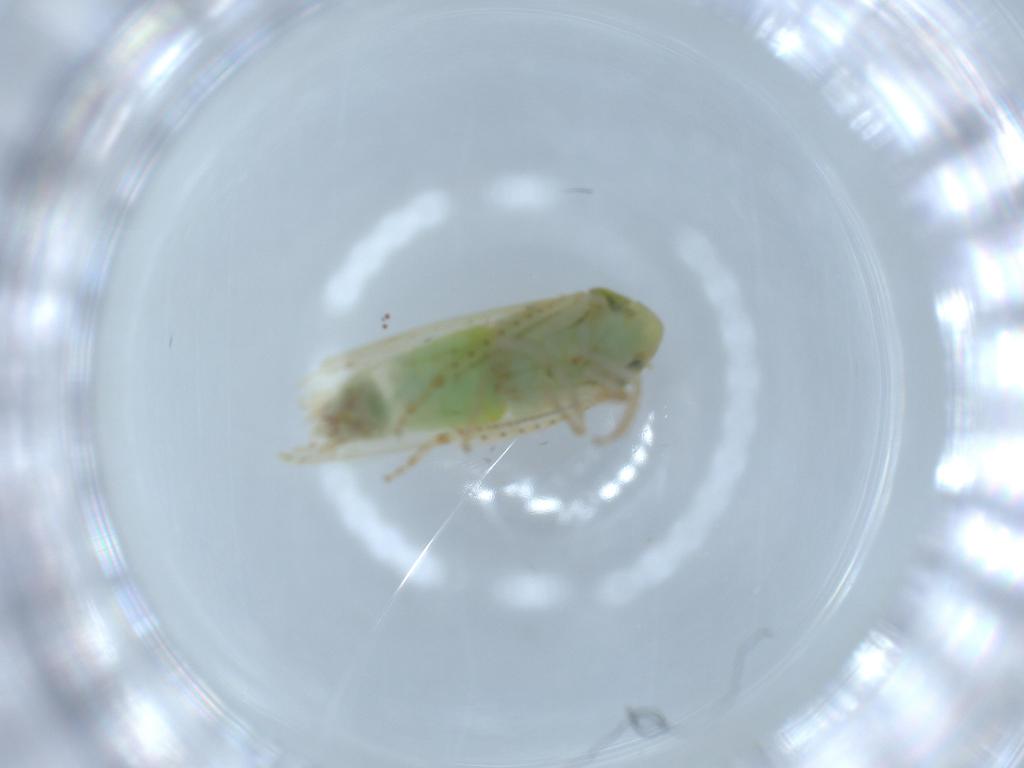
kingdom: Animalia
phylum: Arthropoda
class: Insecta
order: Hemiptera
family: Cicadellidae
